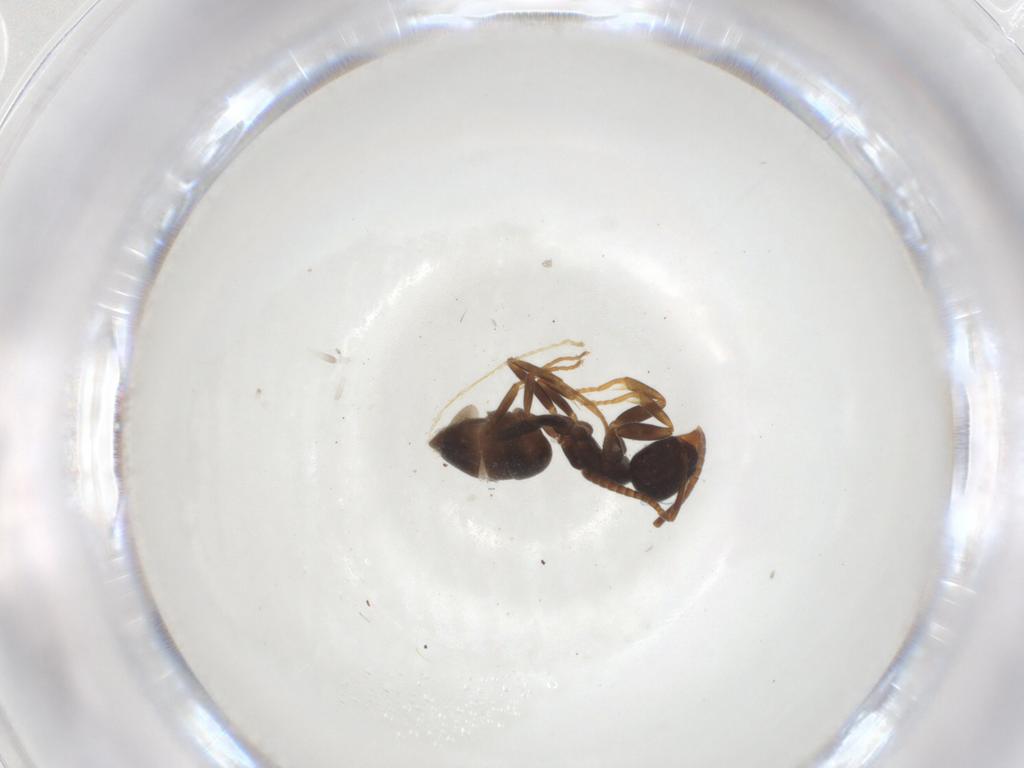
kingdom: Animalia
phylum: Arthropoda
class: Insecta
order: Hymenoptera
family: Formicidae
